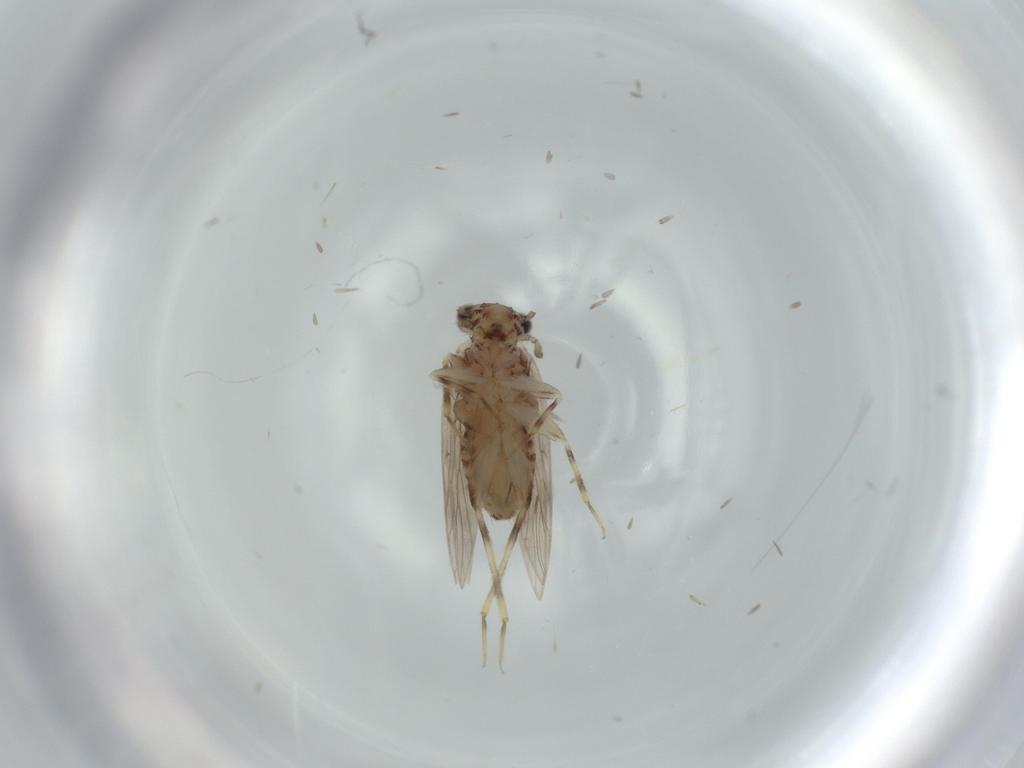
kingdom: Animalia
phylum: Arthropoda
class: Insecta
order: Psocodea
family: Lepidopsocidae
